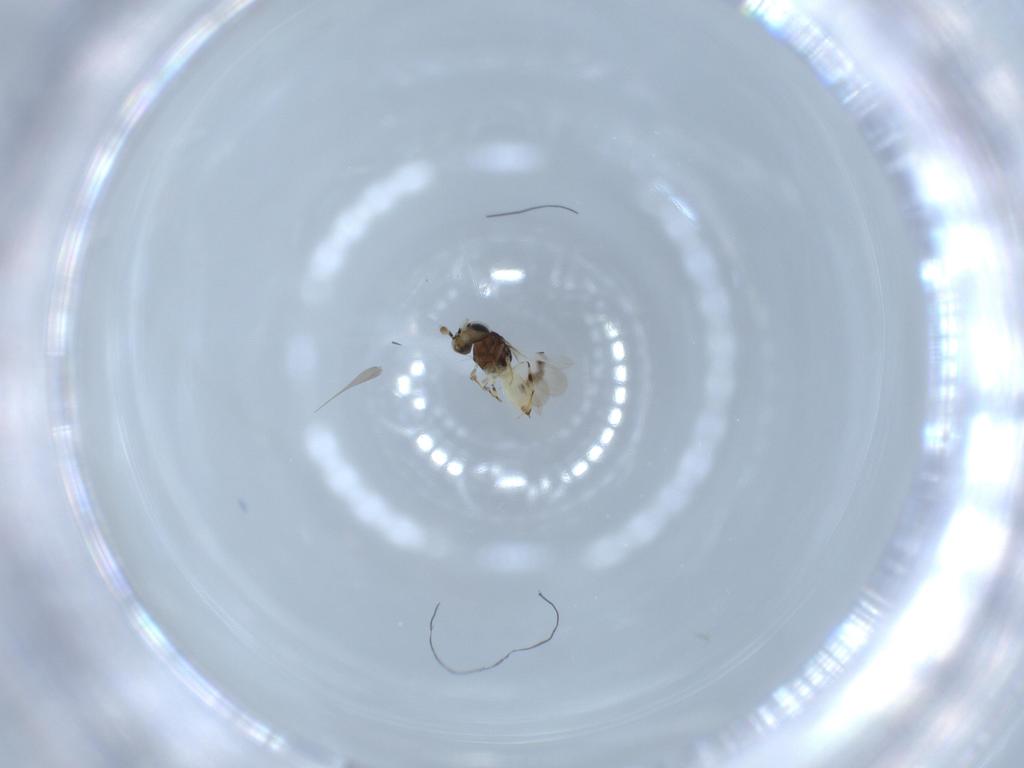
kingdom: Animalia
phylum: Arthropoda
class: Insecta
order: Hymenoptera
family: Scelionidae
